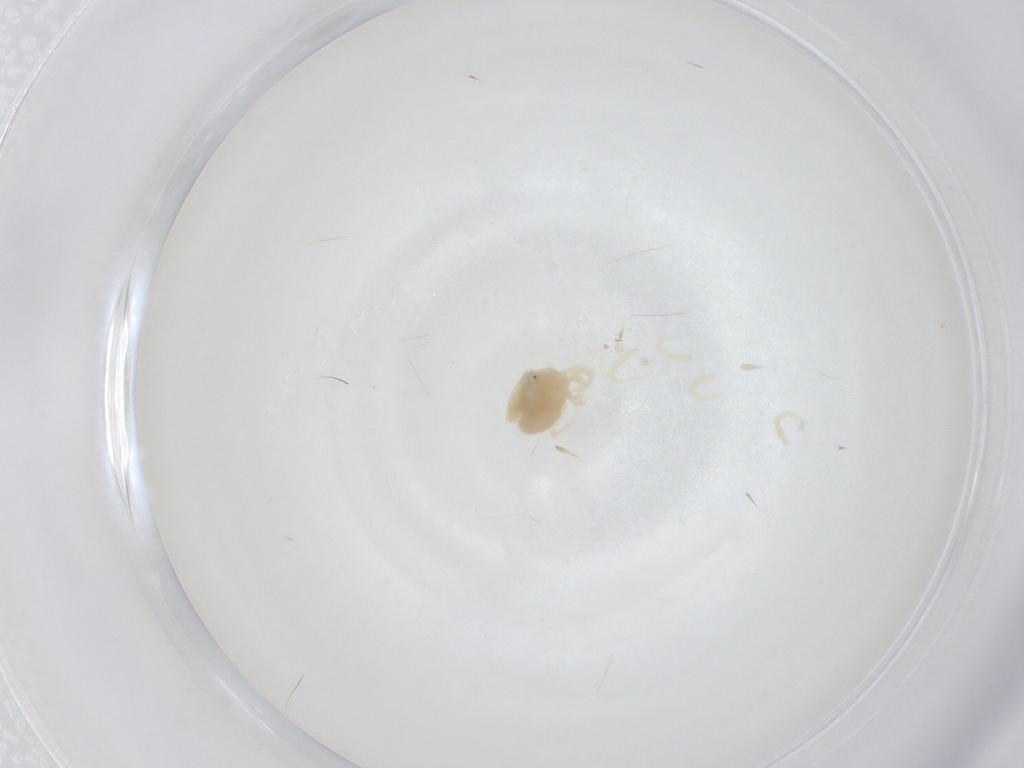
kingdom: Animalia
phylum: Arthropoda
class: Arachnida
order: Trombidiformes
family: Anystidae
